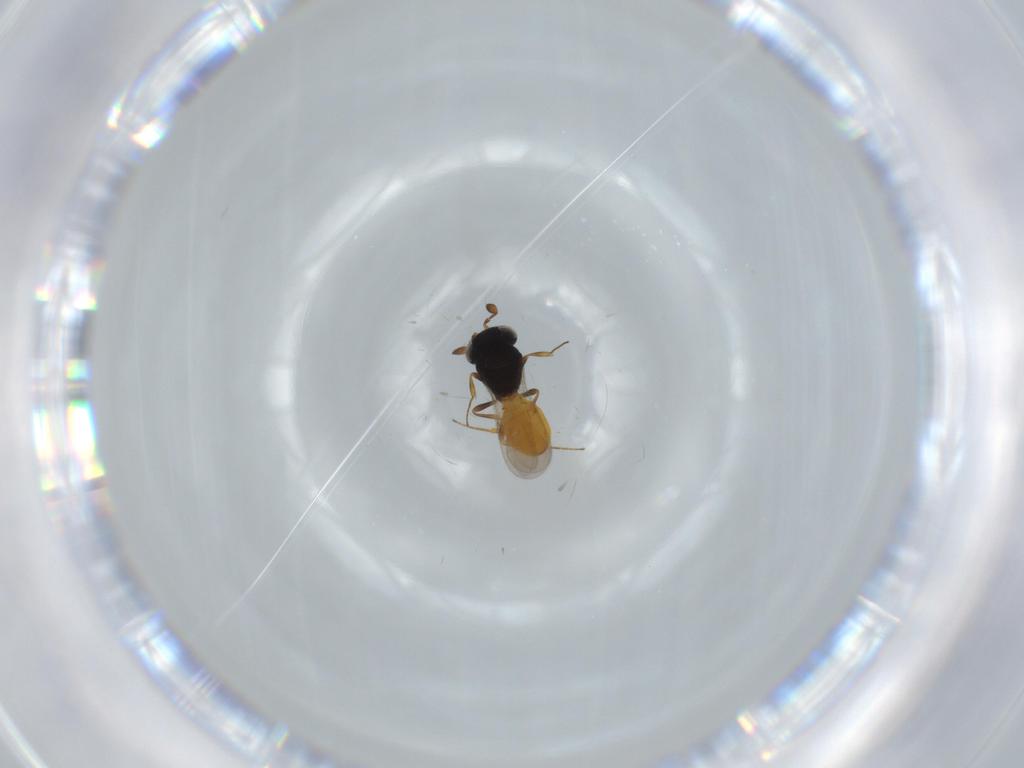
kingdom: Animalia
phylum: Arthropoda
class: Insecta
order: Hymenoptera
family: Scelionidae
